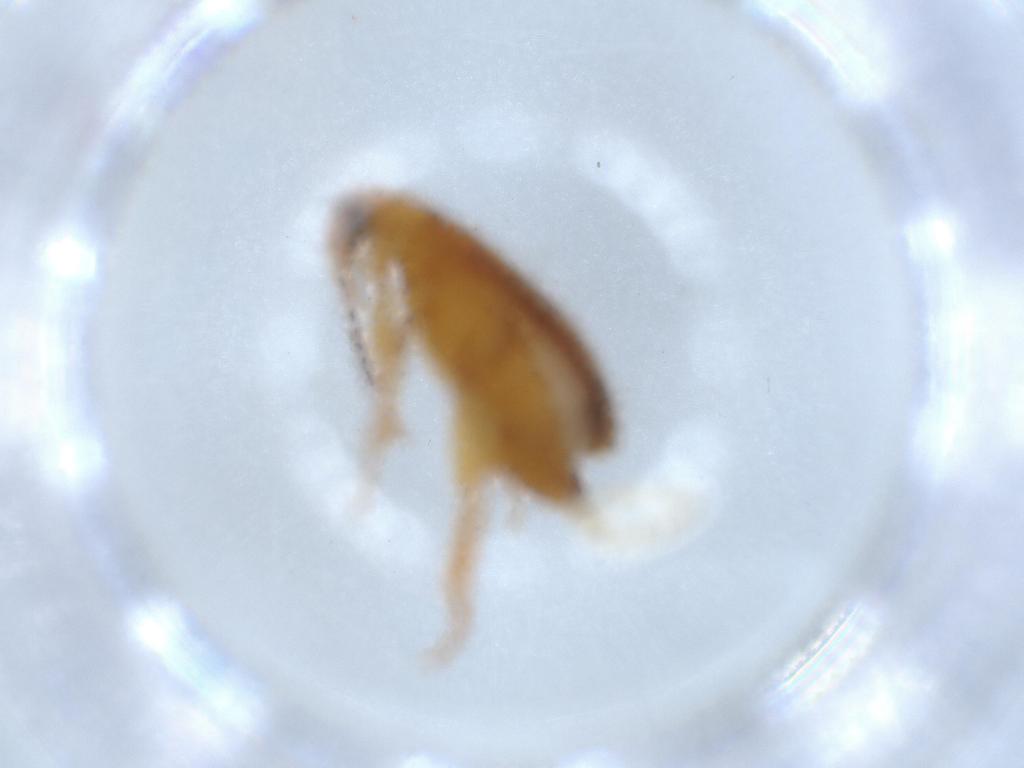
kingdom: Animalia
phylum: Arthropoda
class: Insecta
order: Coleoptera
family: Scraptiidae
